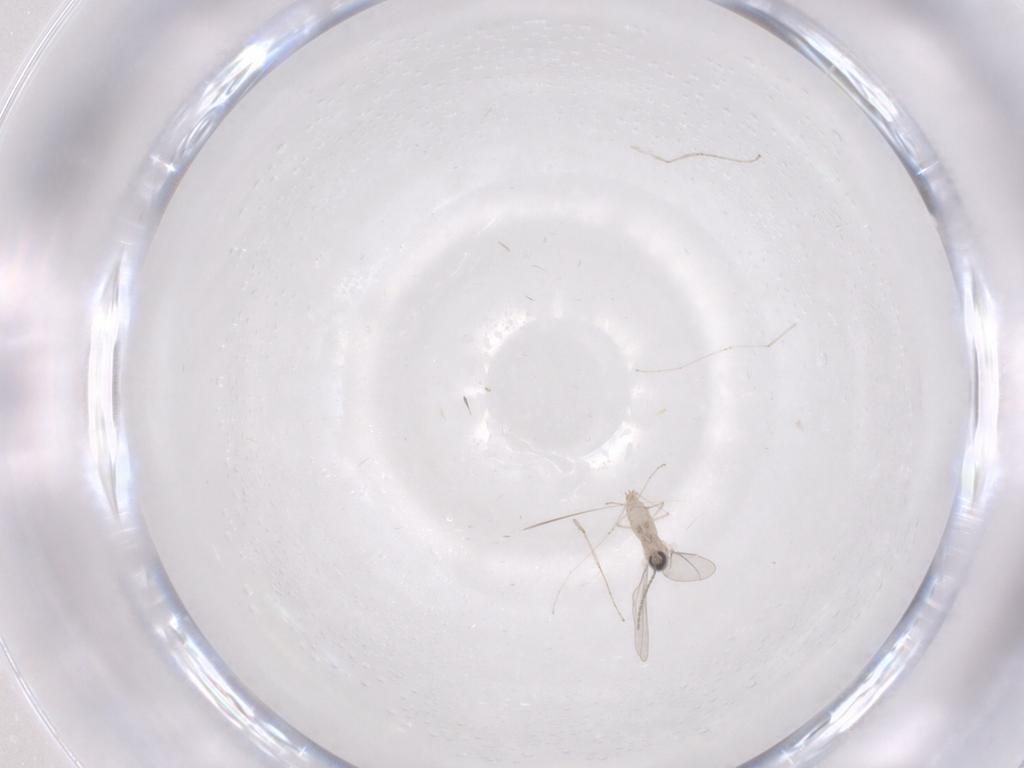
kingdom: Animalia
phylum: Arthropoda
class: Insecta
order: Diptera
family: Cecidomyiidae
